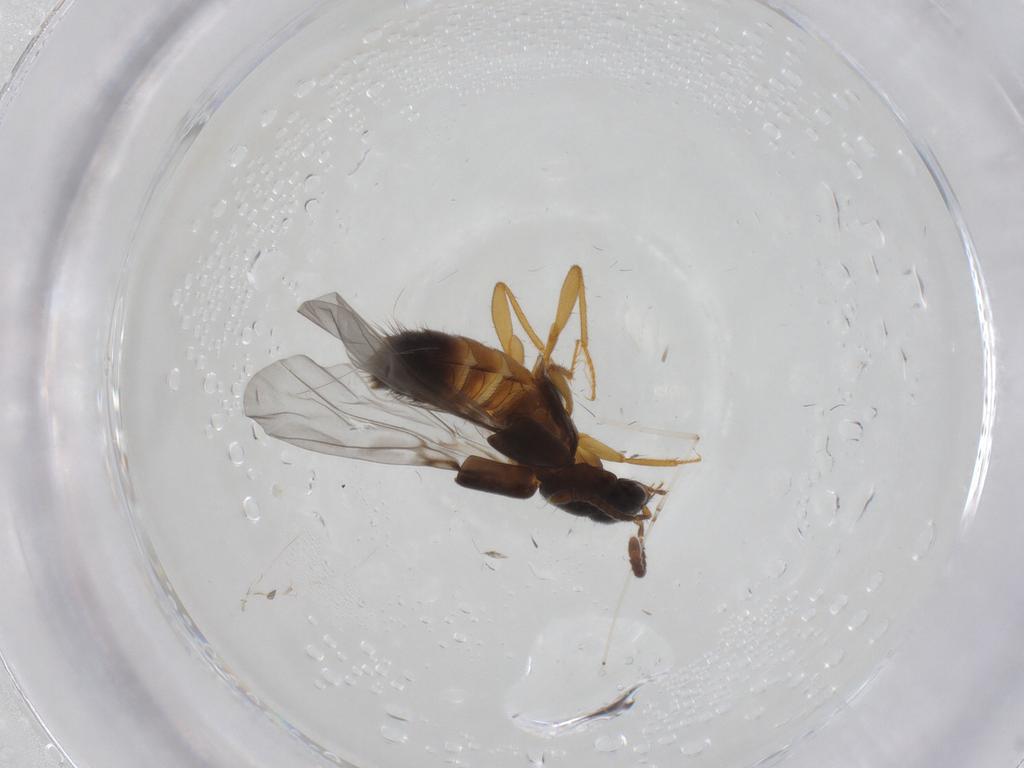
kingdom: Animalia
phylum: Arthropoda
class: Insecta
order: Coleoptera
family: Staphylinidae
